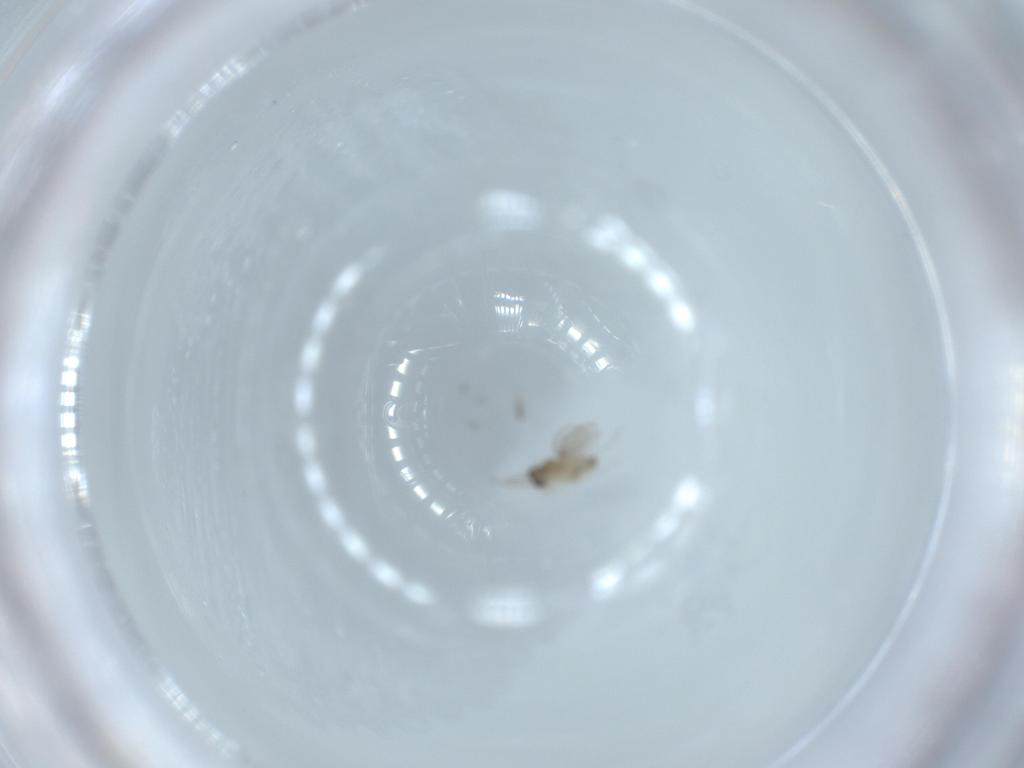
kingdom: Animalia
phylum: Arthropoda
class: Insecta
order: Diptera
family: Cecidomyiidae
